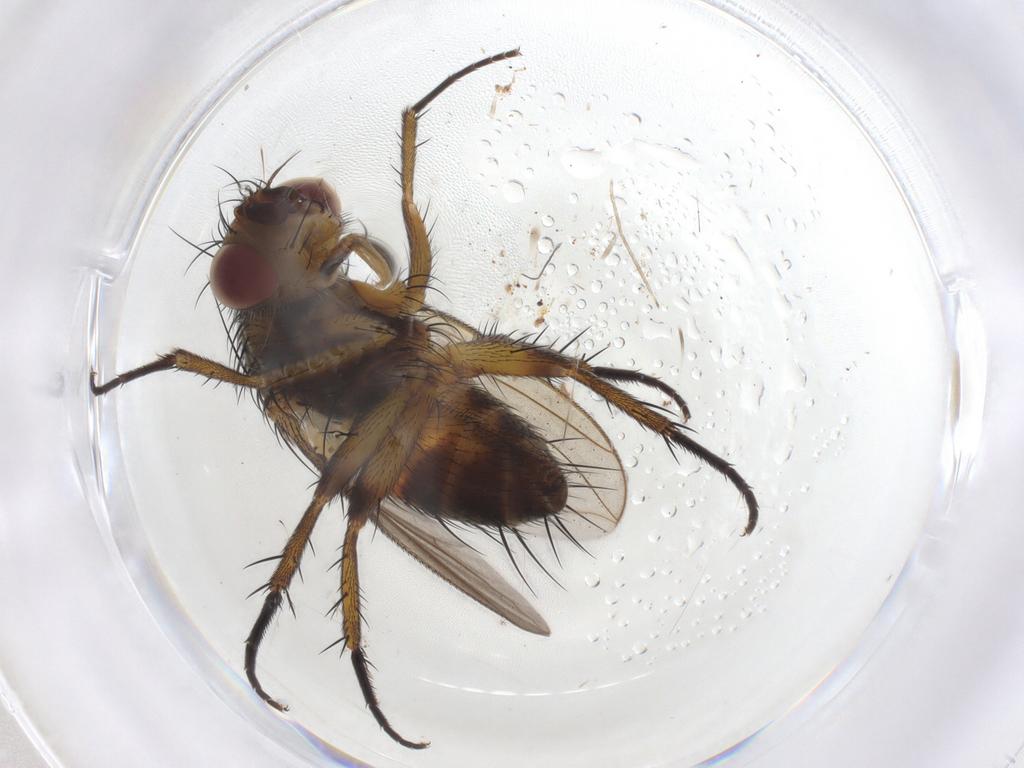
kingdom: Animalia
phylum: Arthropoda
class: Insecta
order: Diptera
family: Tachinidae
